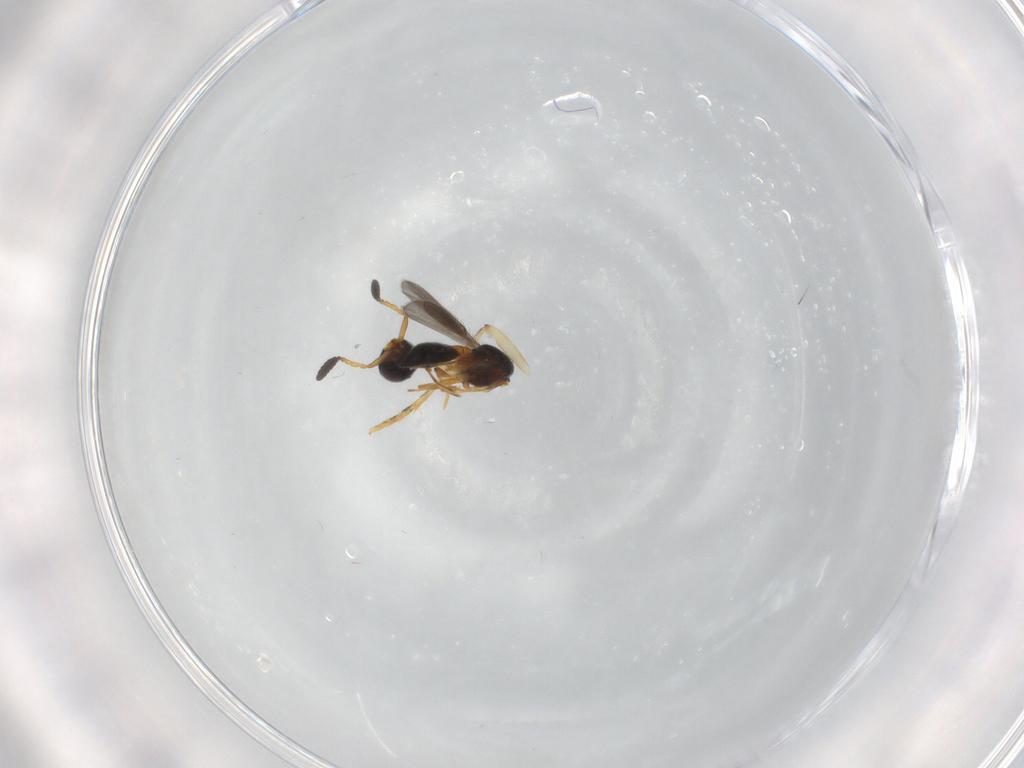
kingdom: Animalia
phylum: Arthropoda
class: Insecta
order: Hymenoptera
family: Scelionidae
